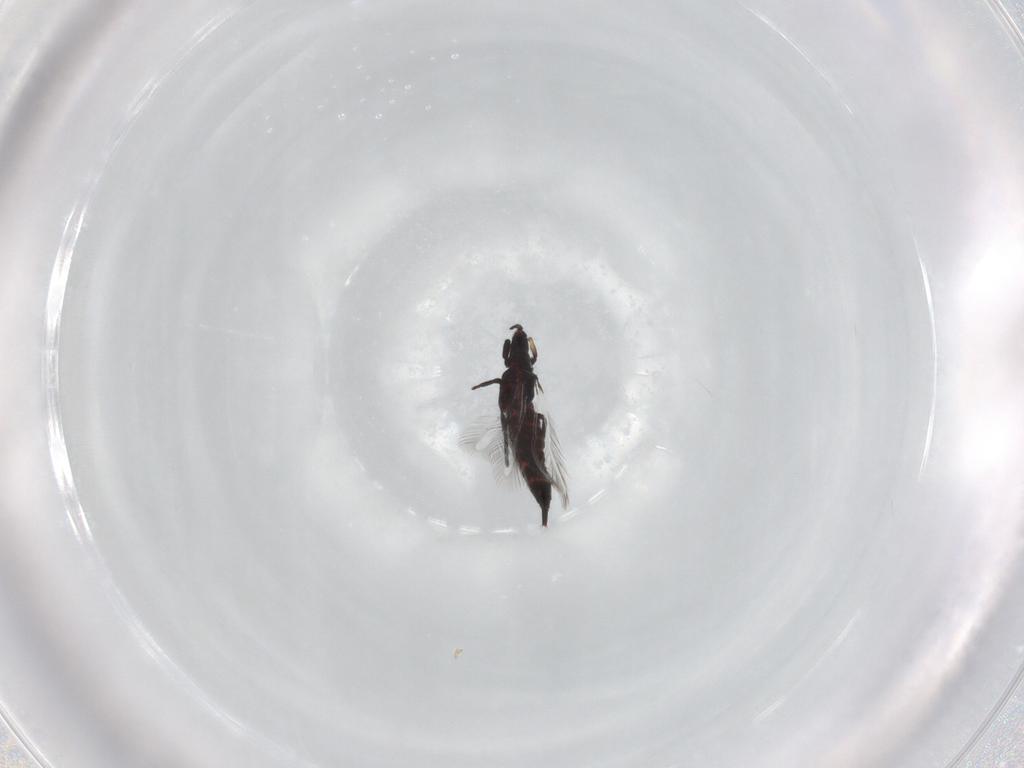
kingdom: Animalia
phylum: Arthropoda
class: Insecta
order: Thysanoptera
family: Phlaeothripidae
